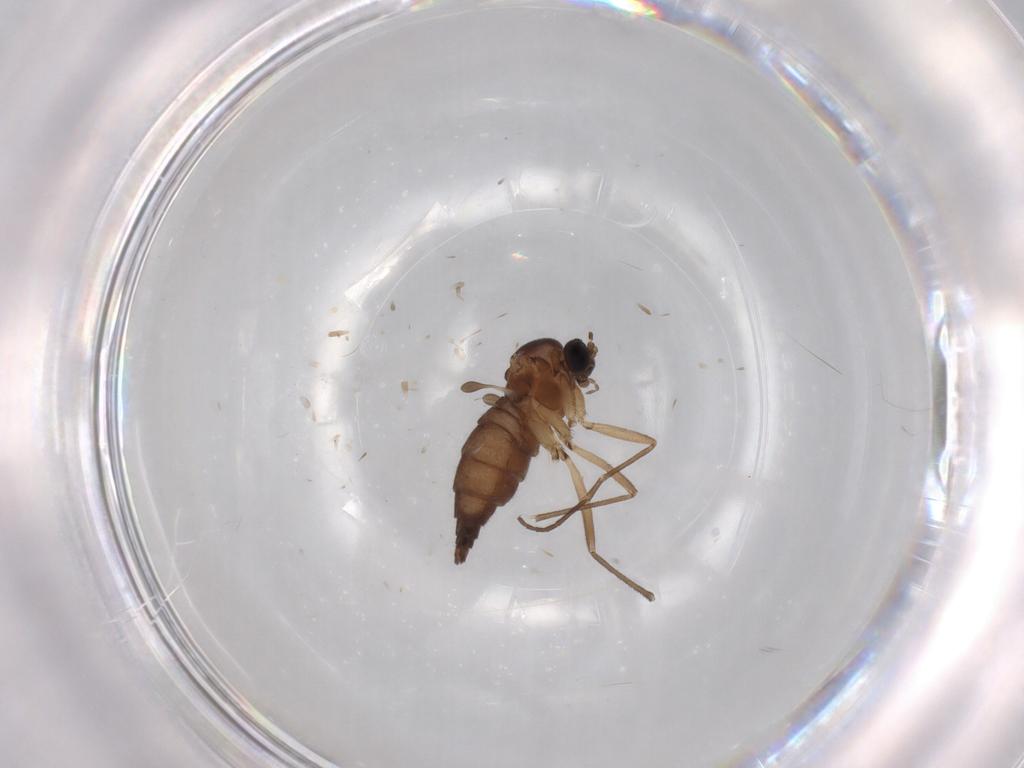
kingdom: Animalia
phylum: Arthropoda
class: Insecta
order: Diptera
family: Sciaridae
